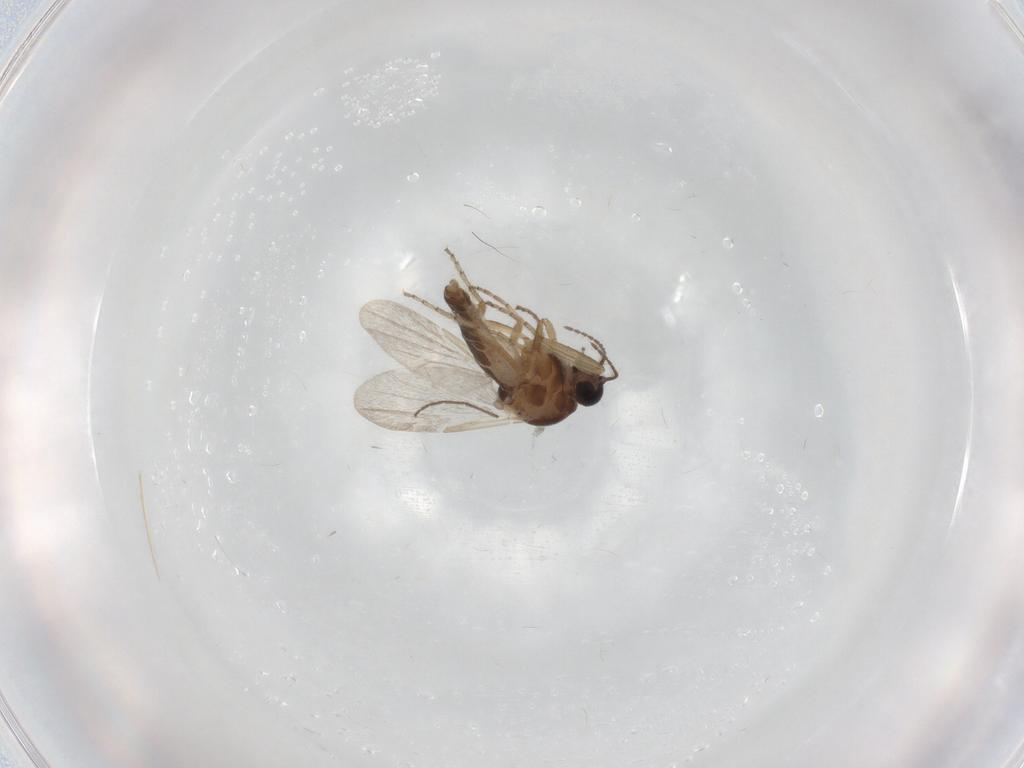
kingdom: Animalia
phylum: Arthropoda
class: Insecta
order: Diptera
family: Ceratopogonidae
